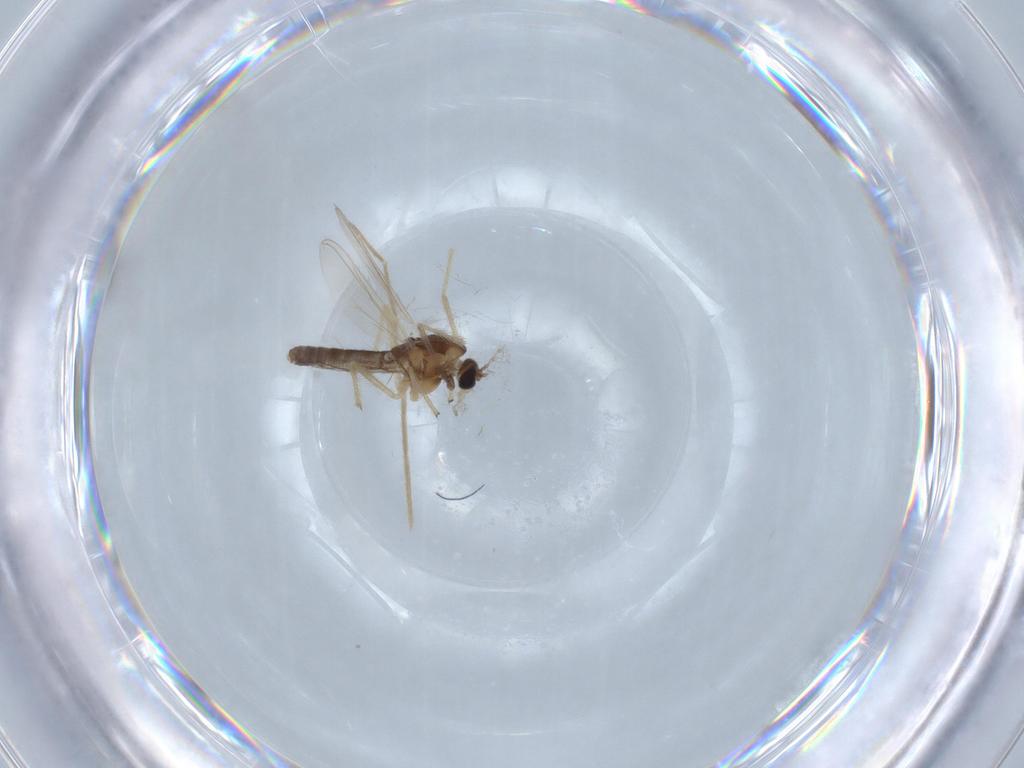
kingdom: Animalia
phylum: Arthropoda
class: Insecta
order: Diptera
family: Chironomidae
